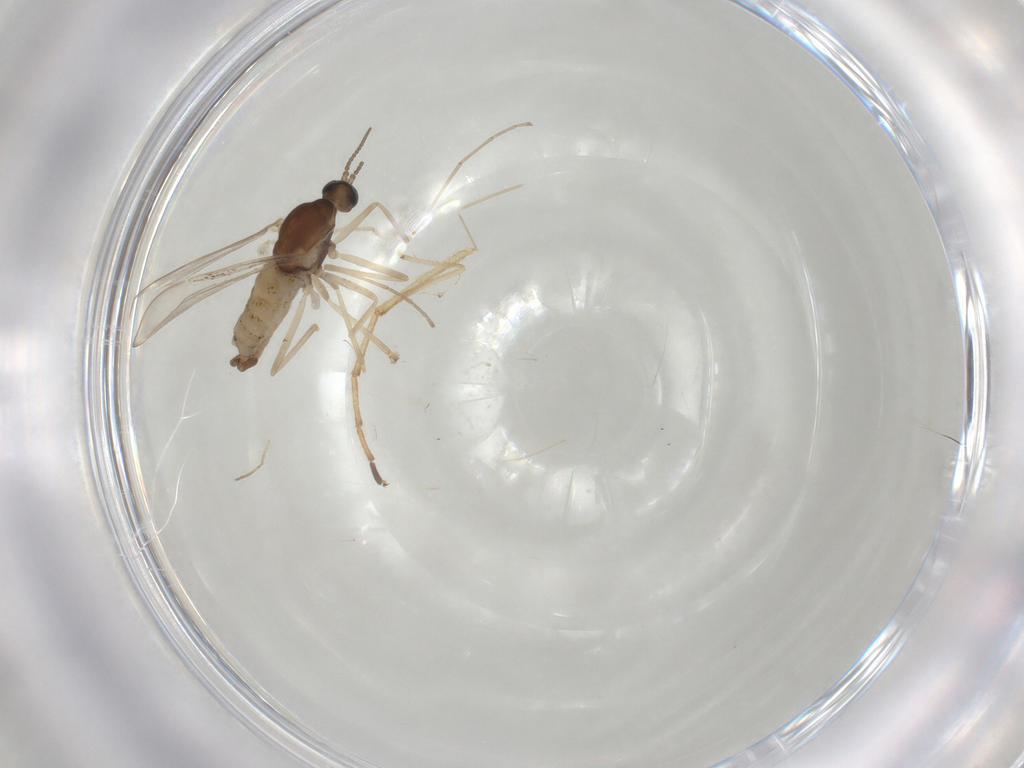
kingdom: Animalia
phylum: Arthropoda
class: Insecta
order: Diptera
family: Cecidomyiidae
